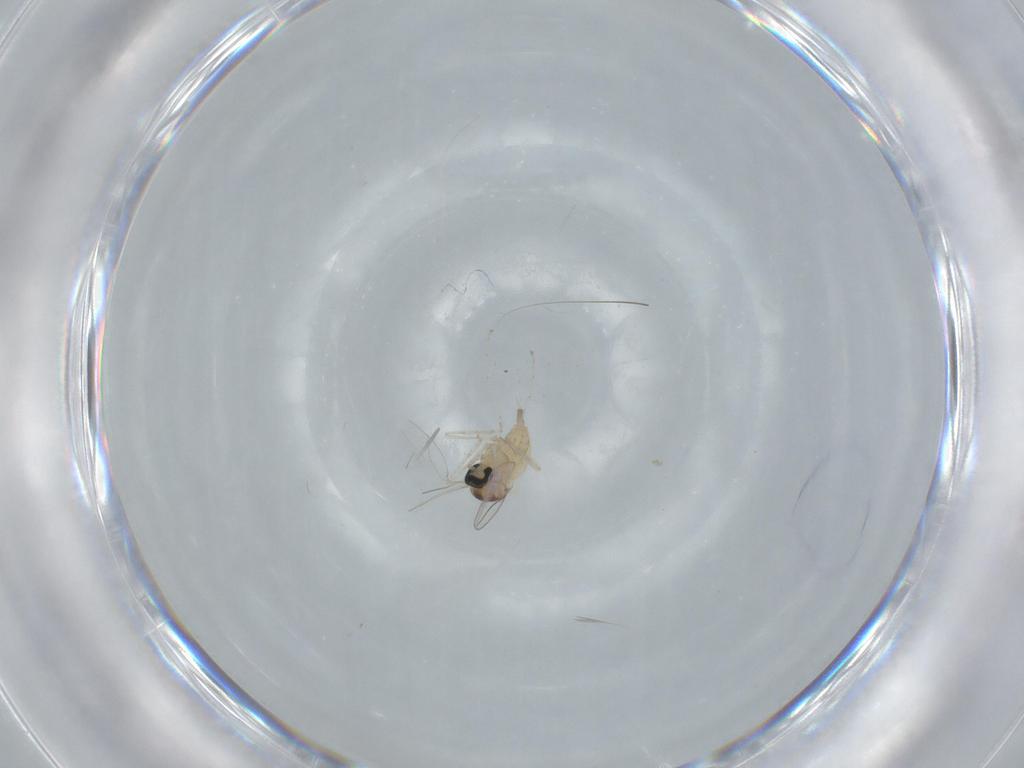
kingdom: Animalia
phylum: Arthropoda
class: Insecta
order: Diptera
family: Cecidomyiidae
